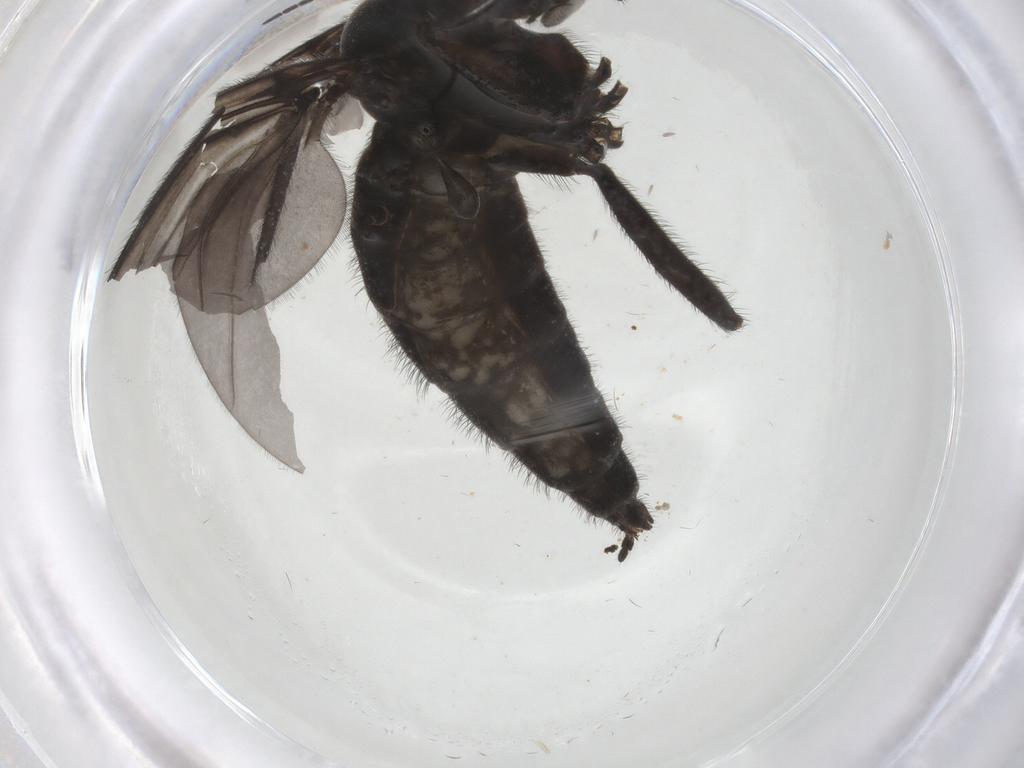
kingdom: Animalia
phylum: Arthropoda
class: Insecta
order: Diptera
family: Sciaridae
